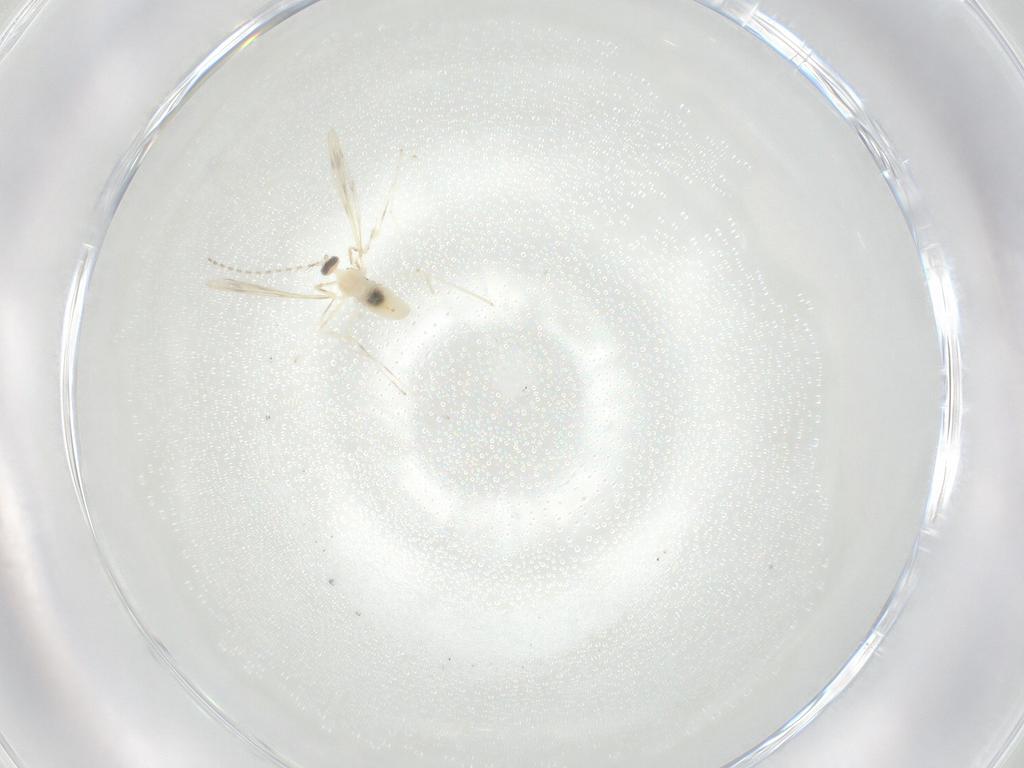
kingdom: Animalia
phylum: Arthropoda
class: Insecta
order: Diptera
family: Cecidomyiidae
